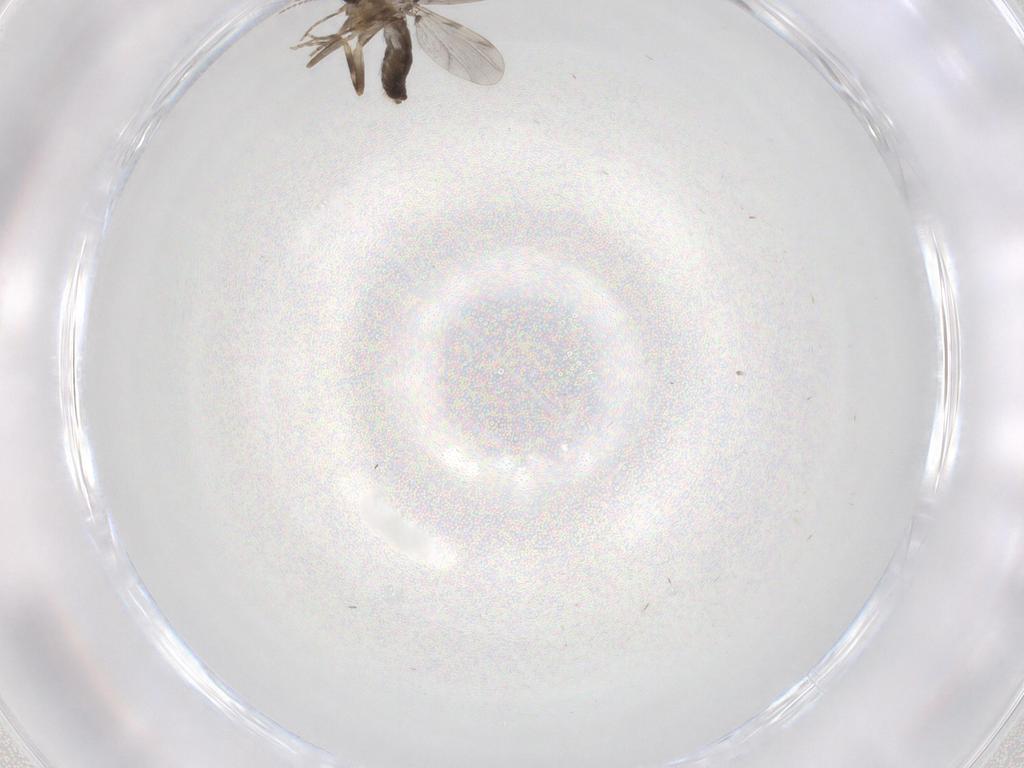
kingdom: Animalia
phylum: Arthropoda
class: Insecta
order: Diptera
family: Ceratopogonidae
